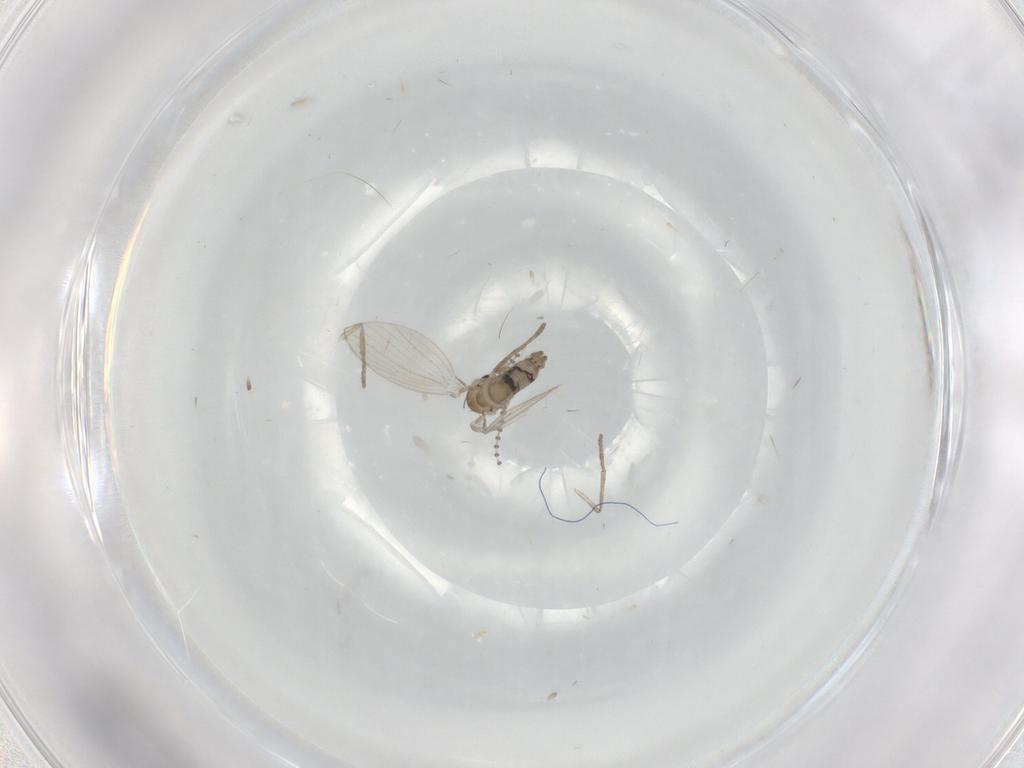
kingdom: Animalia
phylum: Arthropoda
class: Insecta
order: Diptera
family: Psychodidae
